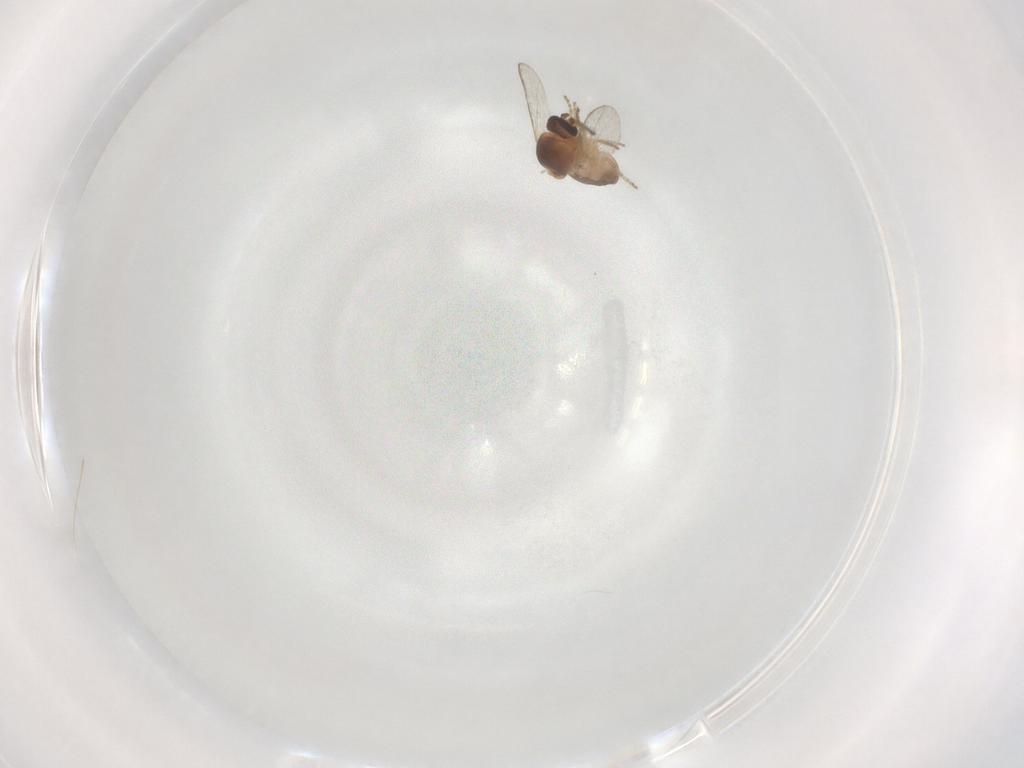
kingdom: Animalia
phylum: Arthropoda
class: Insecta
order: Diptera
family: Ceratopogonidae
